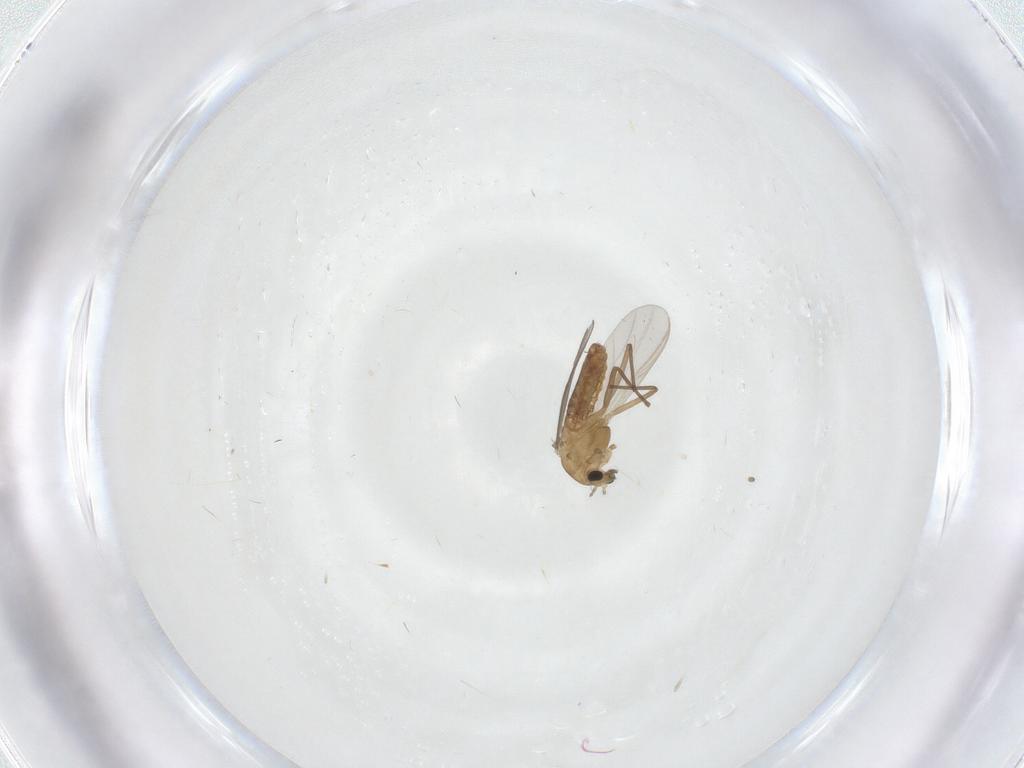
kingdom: Animalia
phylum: Arthropoda
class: Insecta
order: Diptera
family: Chironomidae
